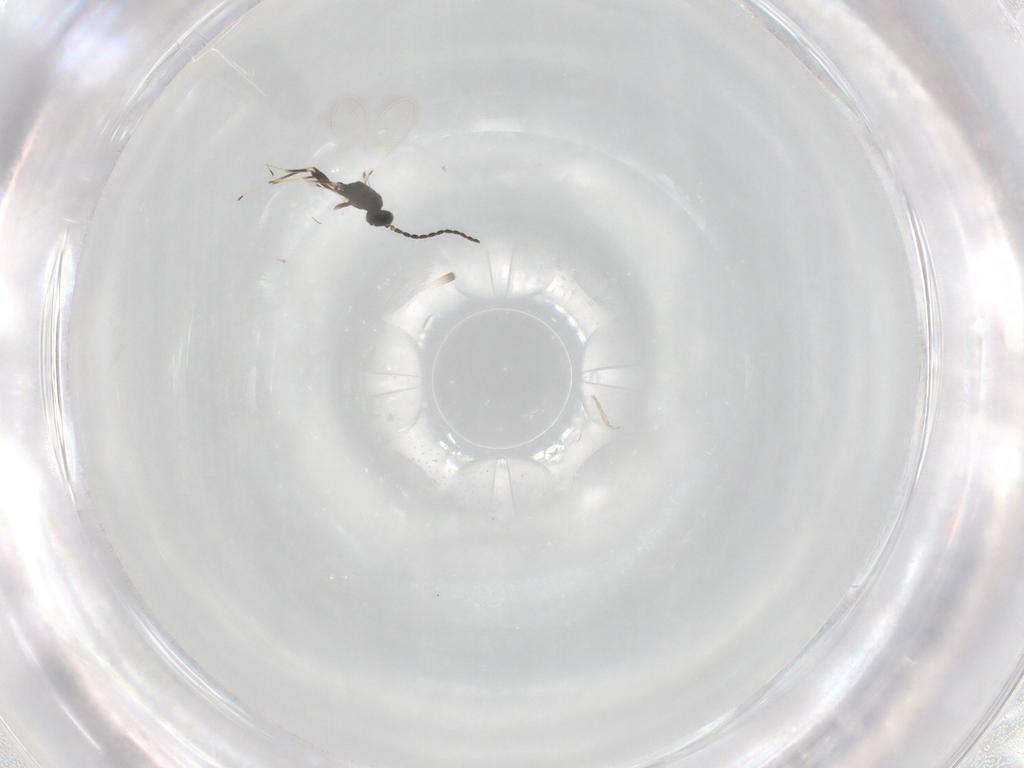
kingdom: Animalia
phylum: Arthropoda
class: Insecta
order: Hymenoptera
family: Mymaridae
